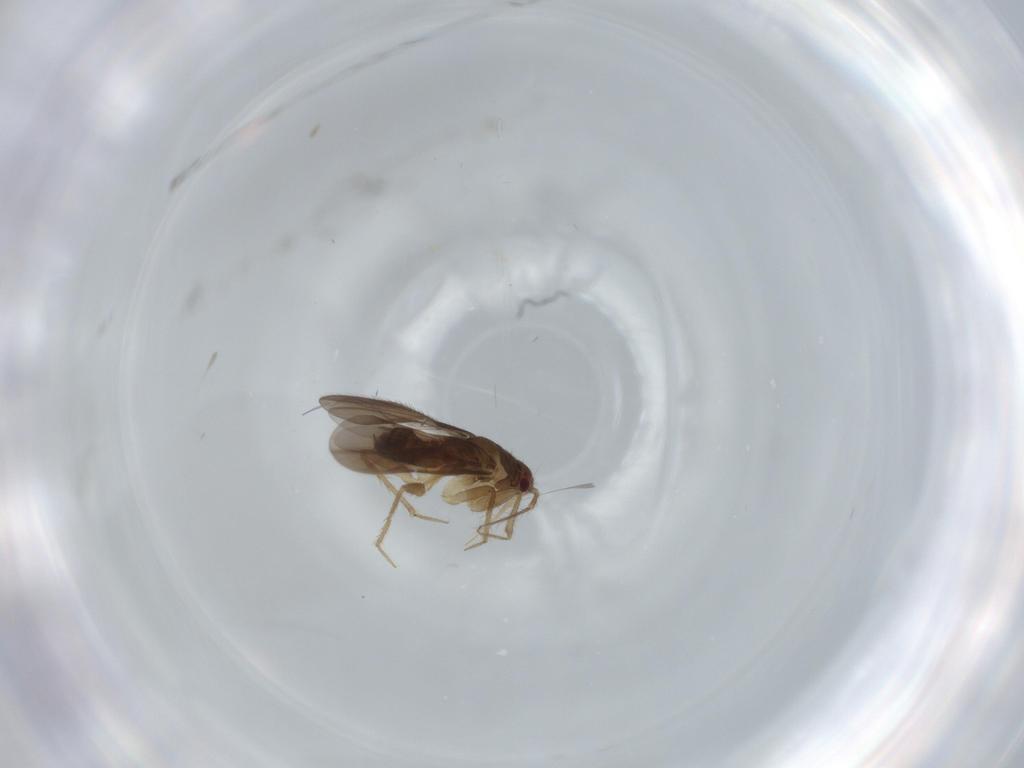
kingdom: Animalia
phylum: Arthropoda
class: Insecta
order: Hemiptera
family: Ceratocombidae
